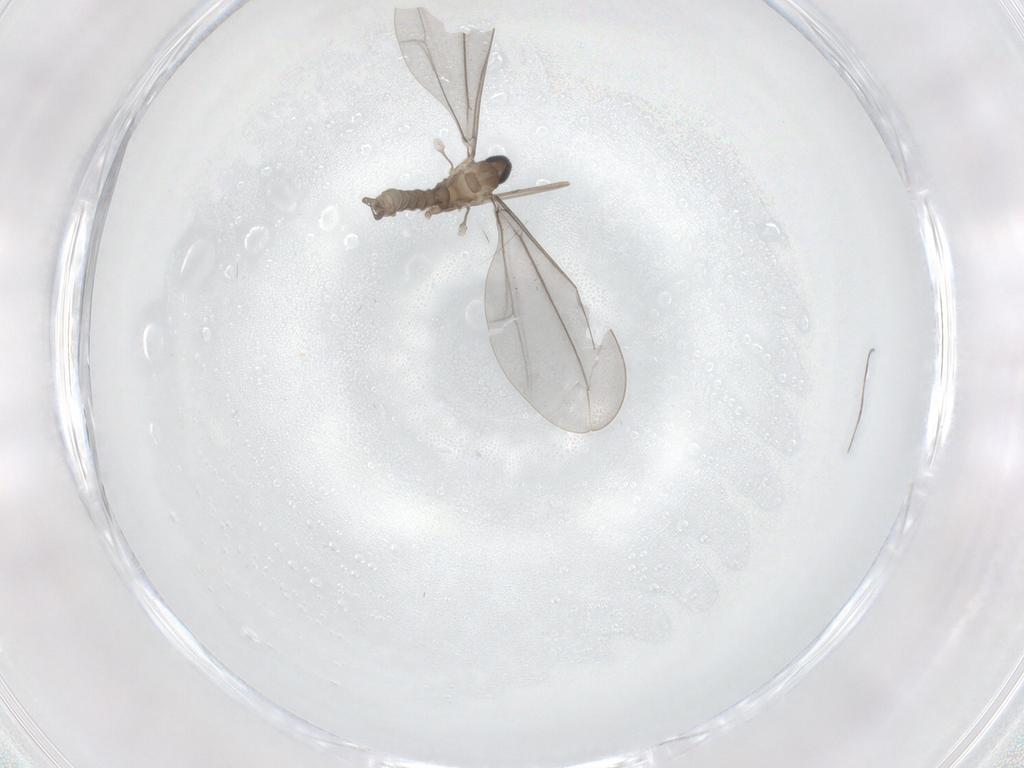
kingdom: Animalia
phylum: Arthropoda
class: Insecta
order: Diptera
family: Cecidomyiidae
